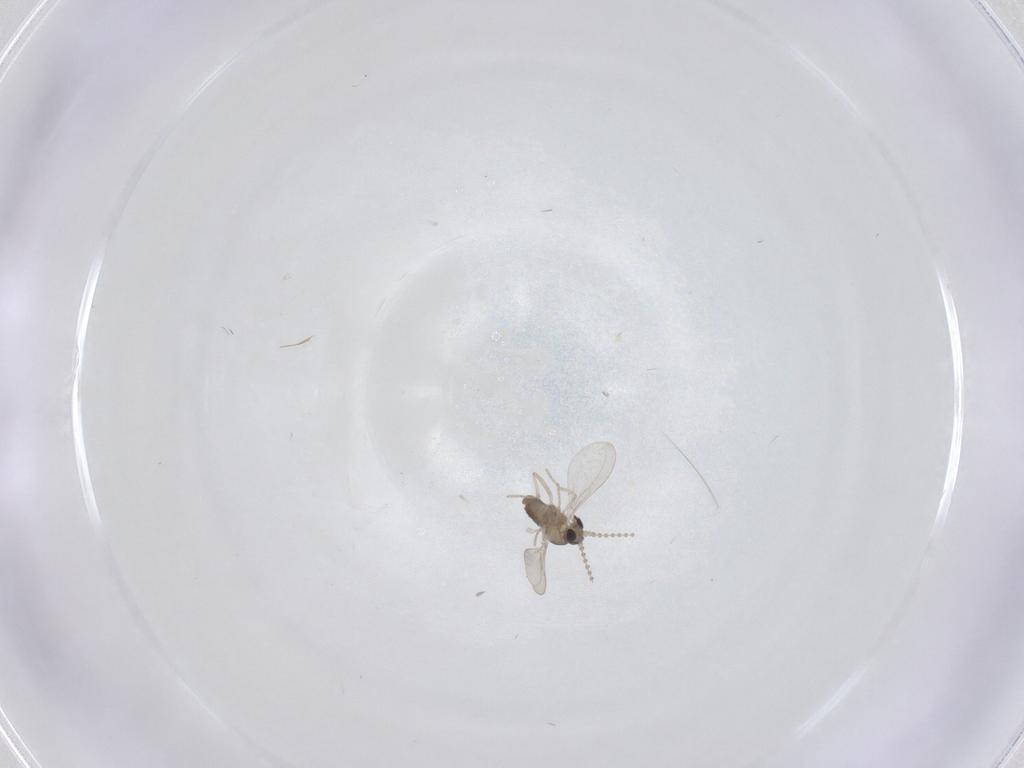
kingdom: Animalia
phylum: Arthropoda
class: Insecta
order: Diptera
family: Ceratopogonidae
